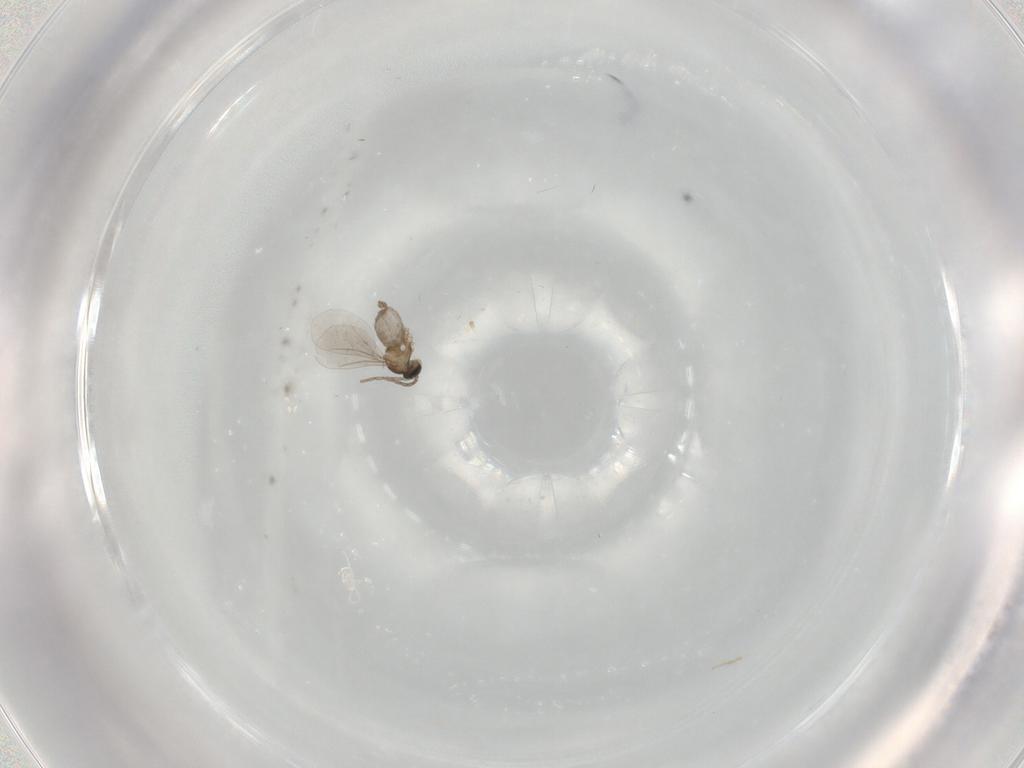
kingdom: Animalia
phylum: Arthropoda
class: Insecta
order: Diptera
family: Cecidomyiidae
